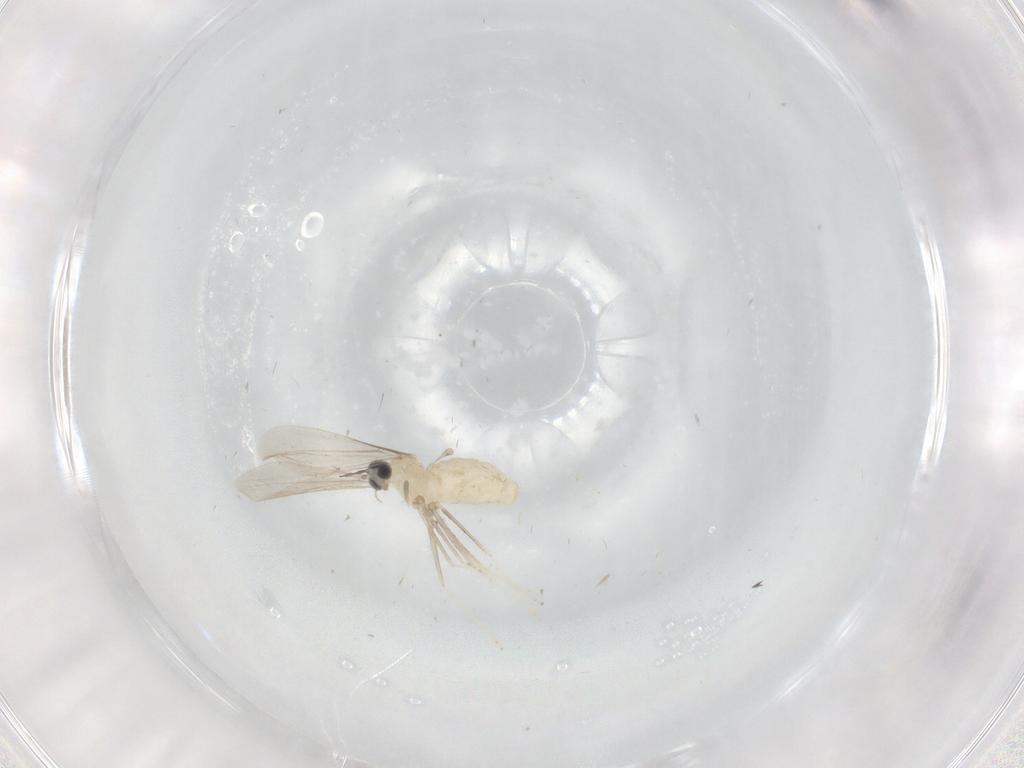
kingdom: Animalia
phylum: Arthropoda
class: Insecta
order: Diptera
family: Cecidomyiidae
